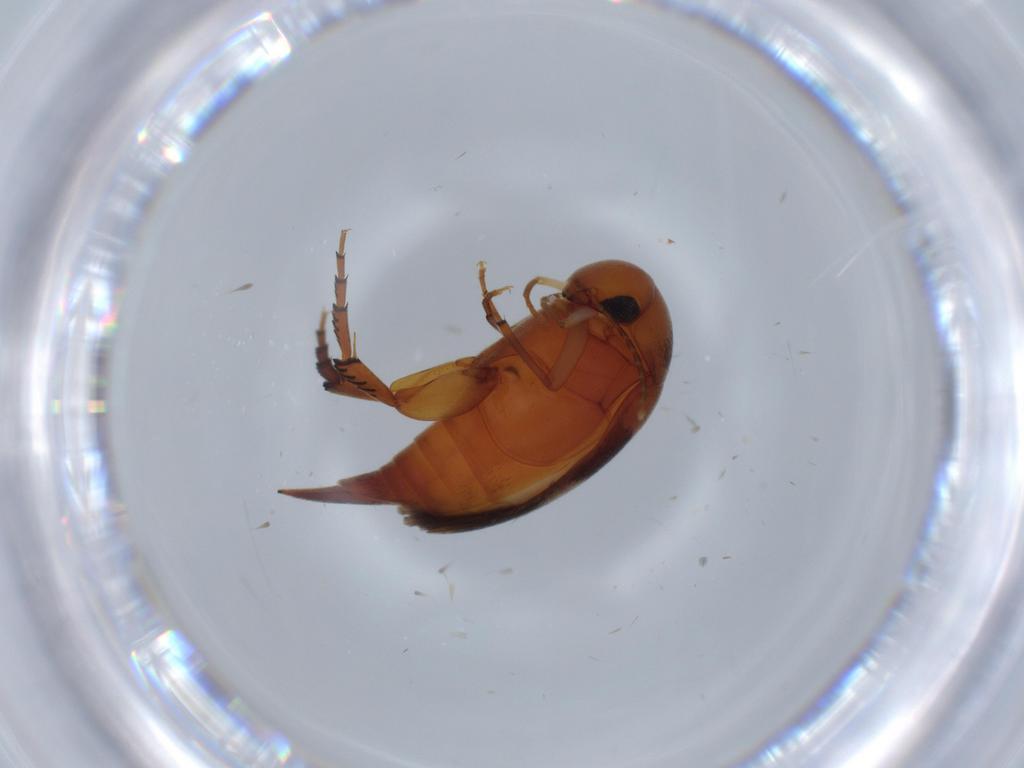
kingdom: Animalia
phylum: Arthropoda
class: Insecta
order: Coleoptera
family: Mordellidae
